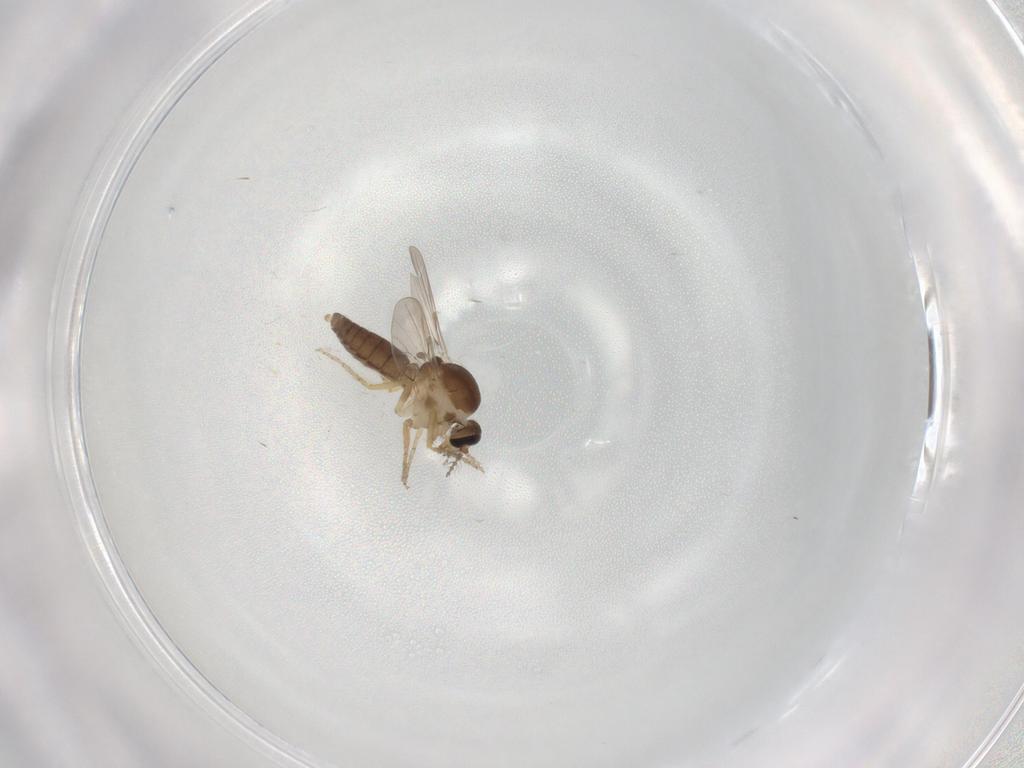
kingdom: Animalia
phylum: Arthropoda
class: Insecta
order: Diptera
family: Ceratopogonidae
